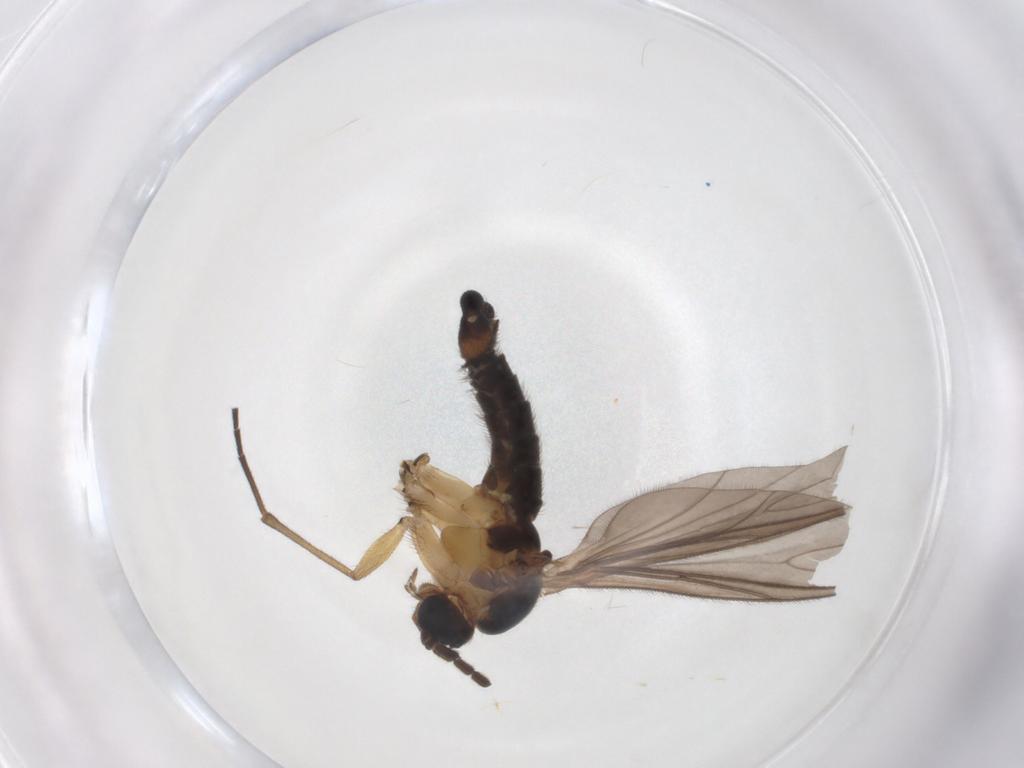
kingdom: Animalia
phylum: Arthropoda
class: Insecta
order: Diptera
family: Sciaridae
